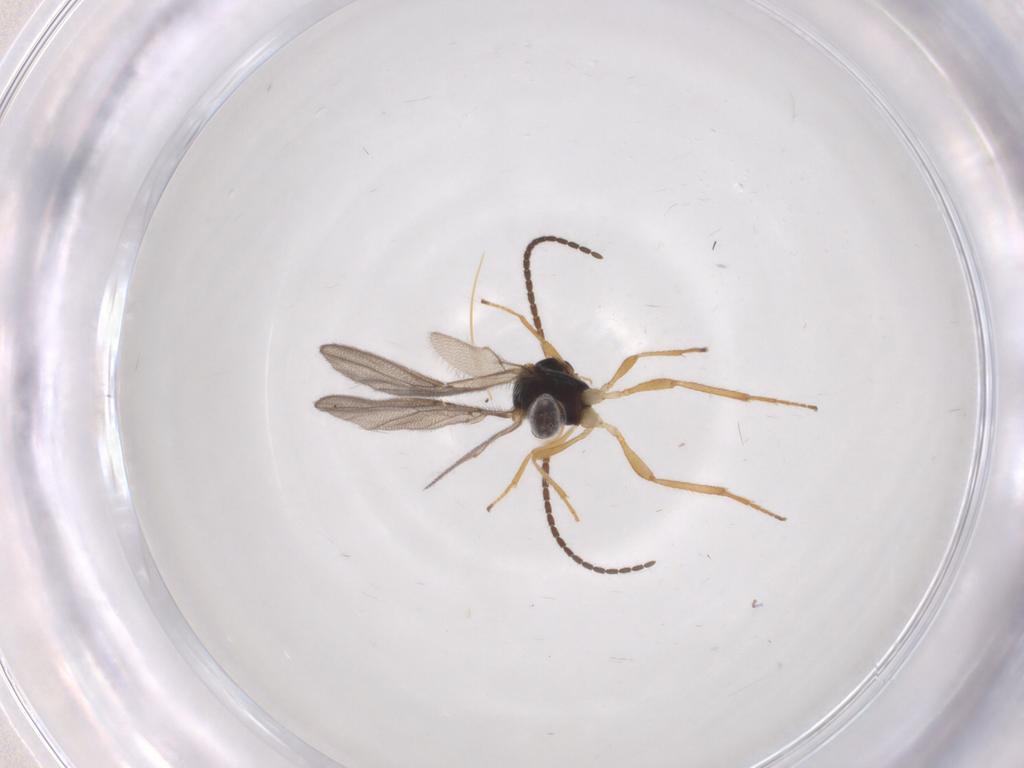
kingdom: Animalia
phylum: Arthropoda
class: Insecta
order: Hymenoptera
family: Braconidae
